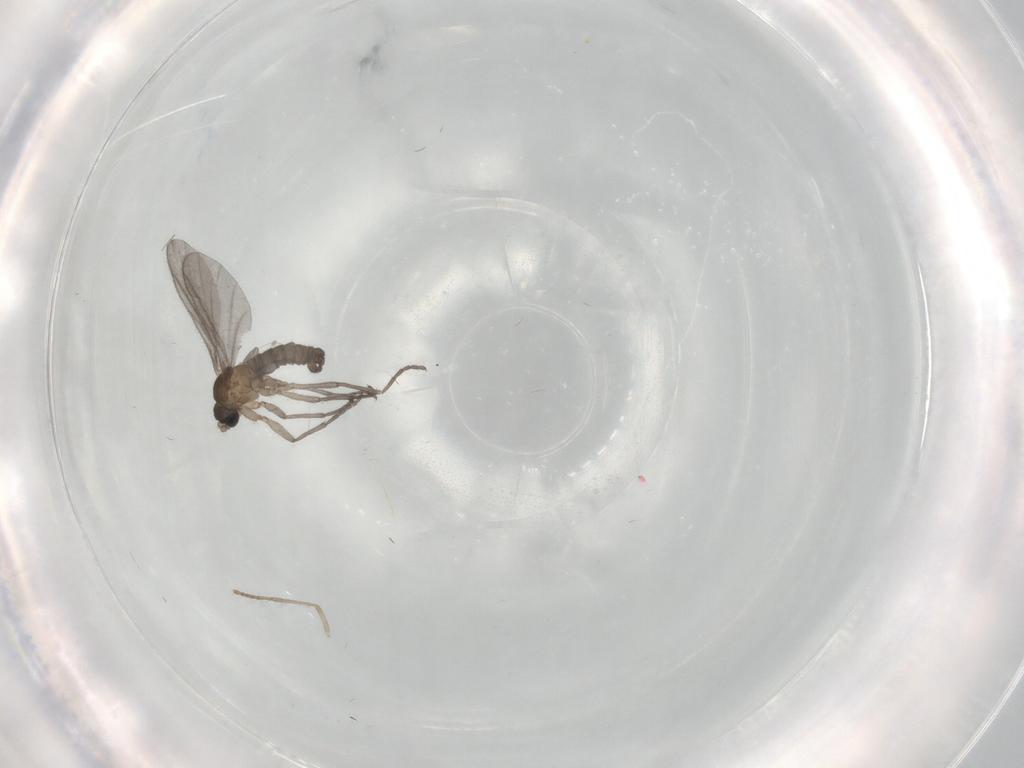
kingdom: Animalia
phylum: Arthropoda
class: Insecta
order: Diptera
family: Sciaridae
